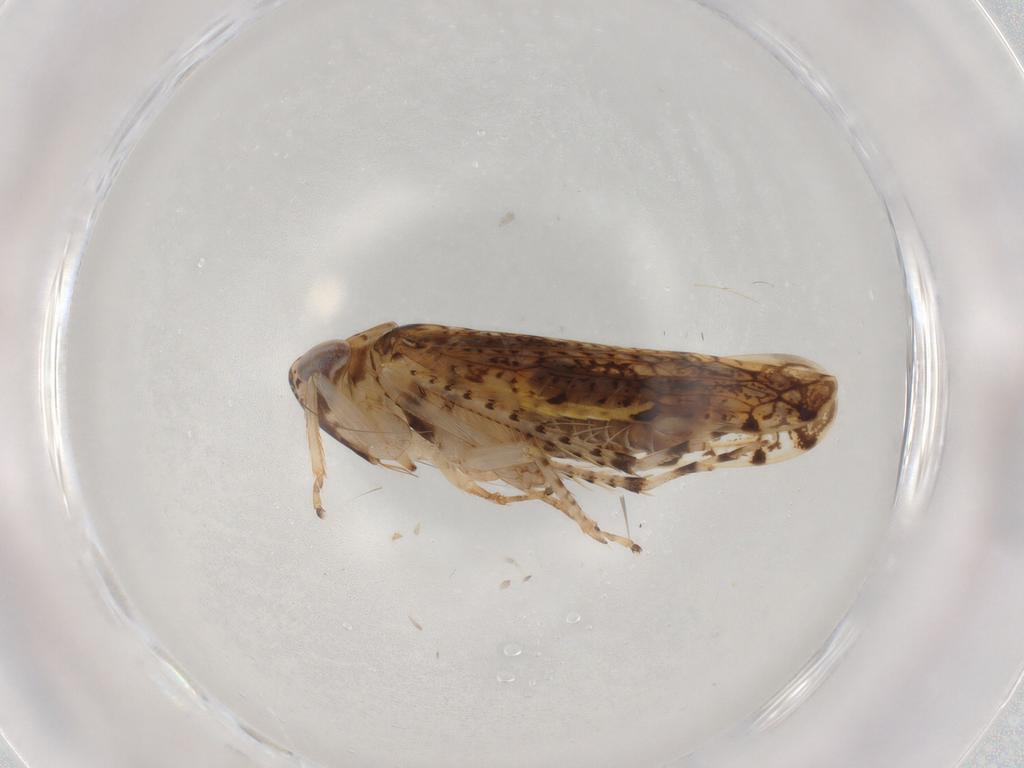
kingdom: Animalia
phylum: Arthropoda
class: Insecta
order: Hemiptera
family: Cicadellidae
